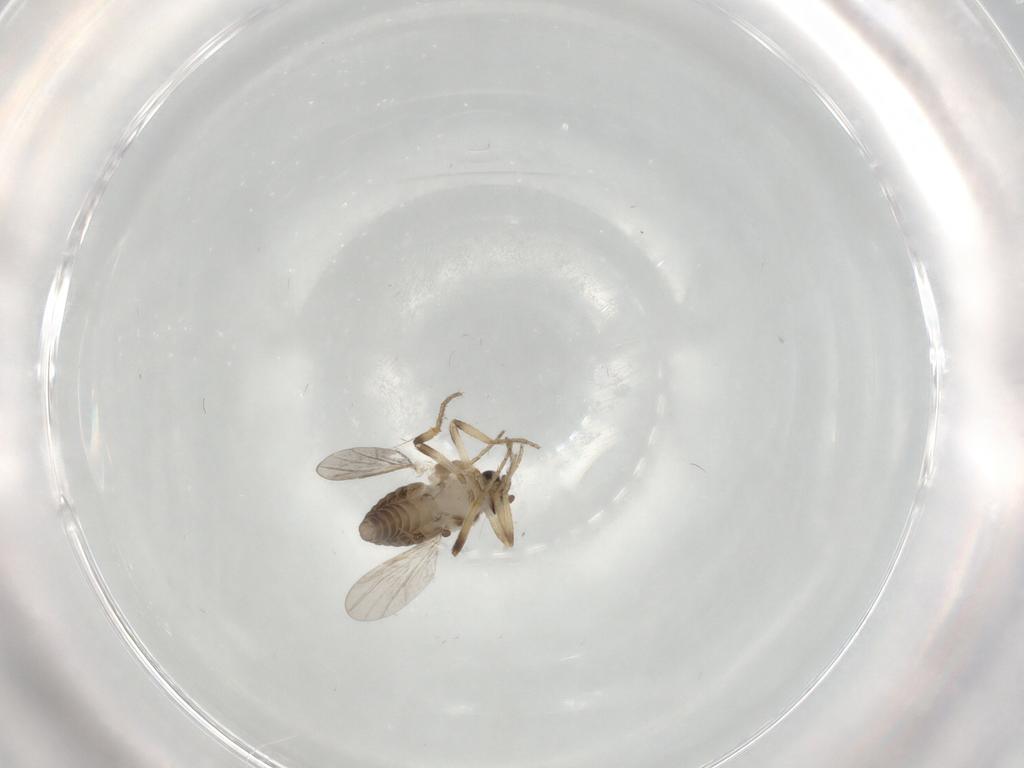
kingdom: Animalia
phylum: Arthropoda
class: Insecta
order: Diptera
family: Ceratopogonidae
